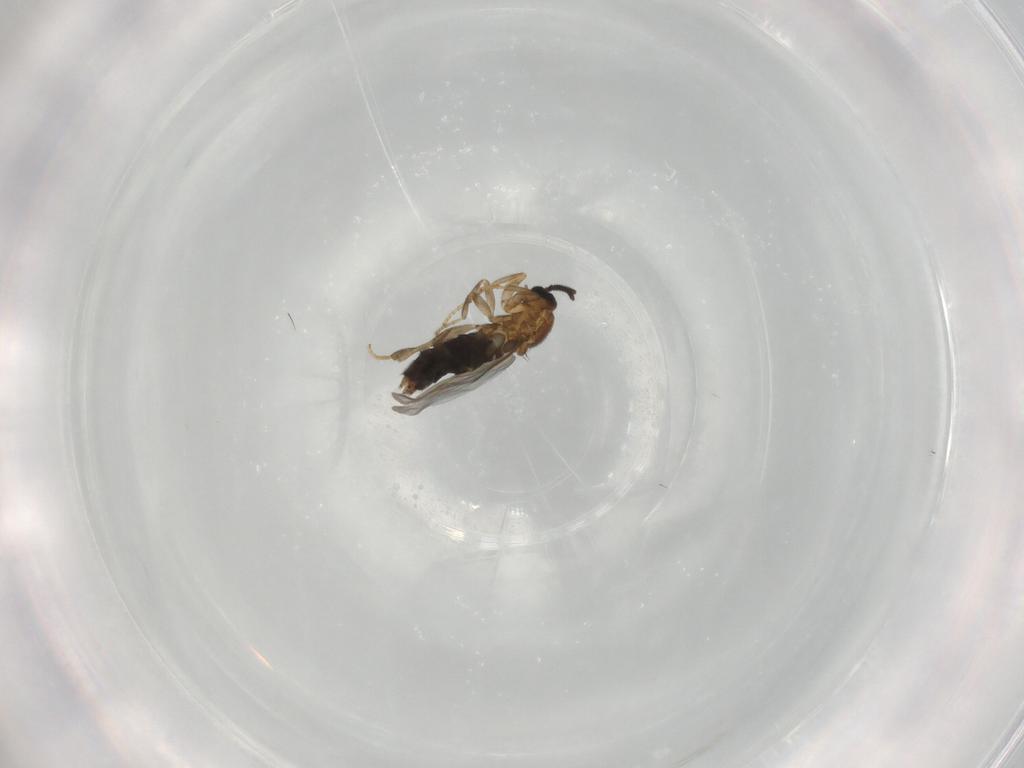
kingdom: Animalia
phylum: Arthropoda
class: Insecta
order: Diptera
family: Scatopsidae
